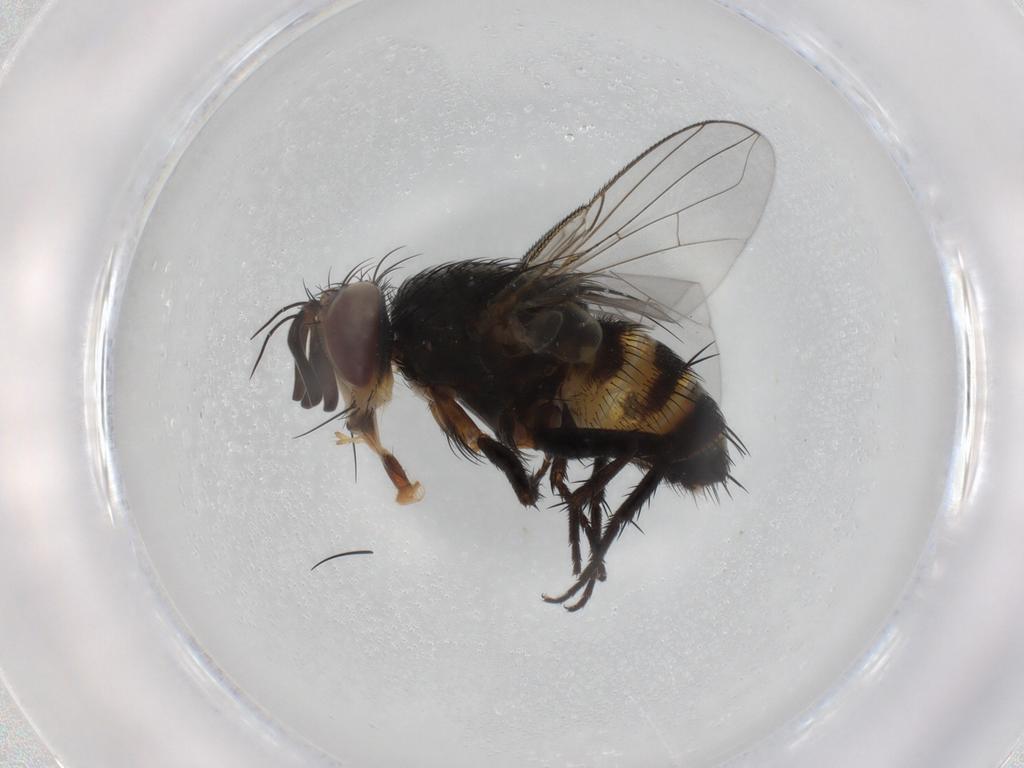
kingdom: Animalia
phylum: Arthropoda
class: Insecta
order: Diptera
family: Tachinidae
